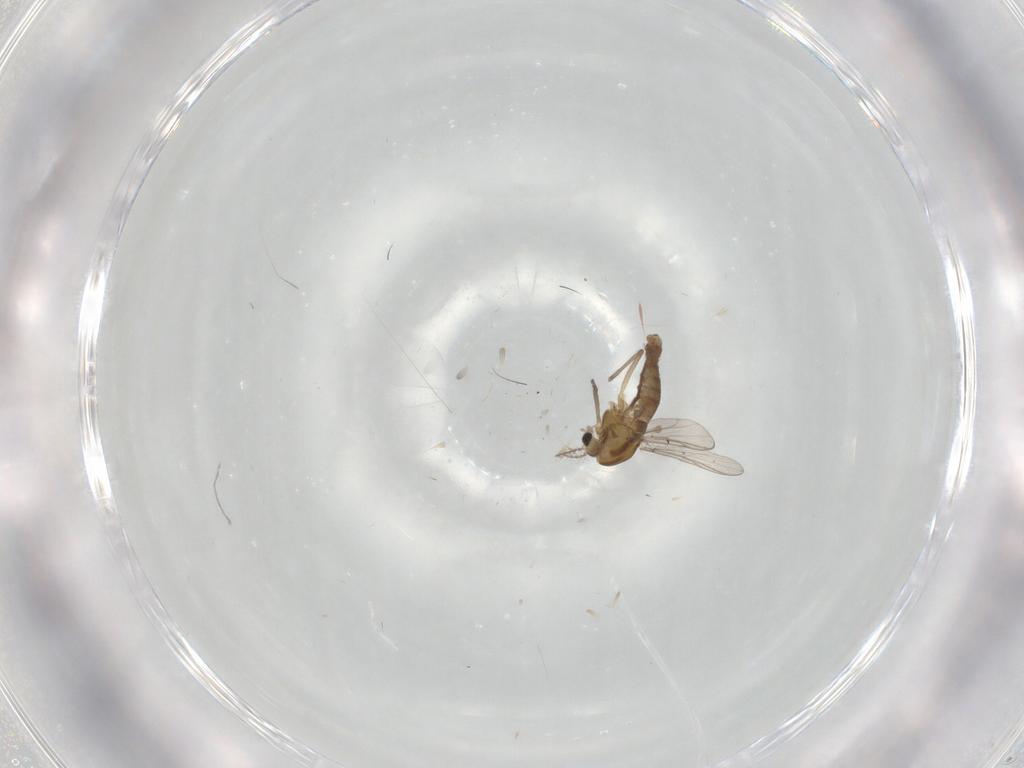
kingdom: Animalia
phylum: Arthropoda
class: Insecta
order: Diptera
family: Chironomidae
